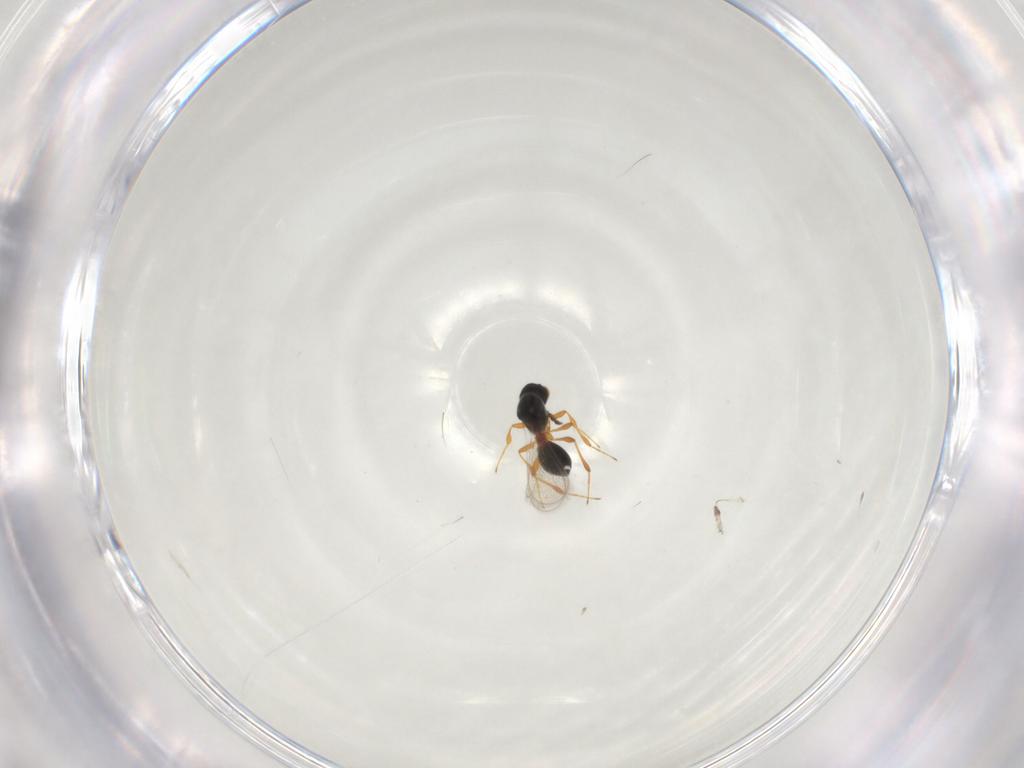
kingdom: Animalia
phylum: Arthropoda
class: Insecta
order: Hymenoptera
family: Platygastridae
